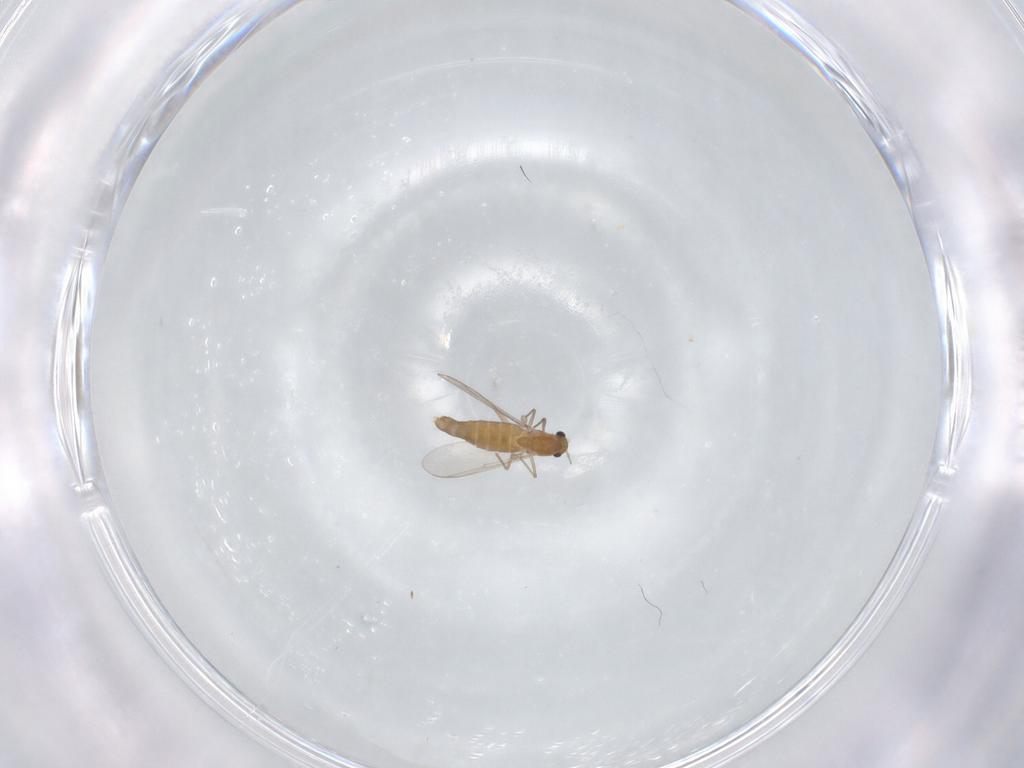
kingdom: Animalia
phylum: Arthropoda
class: Insecta
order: Diptera
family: Chironomidae
